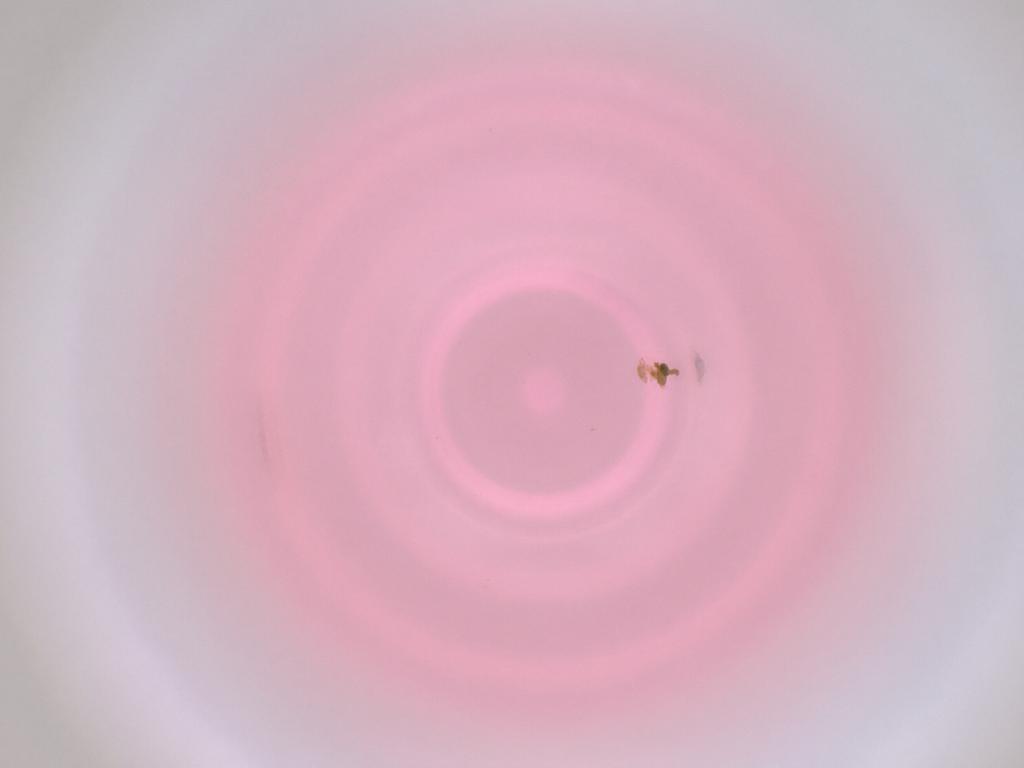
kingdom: Animalia
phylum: Arthropoda
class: Insecta
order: Diptera
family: Cecidomyiidae
